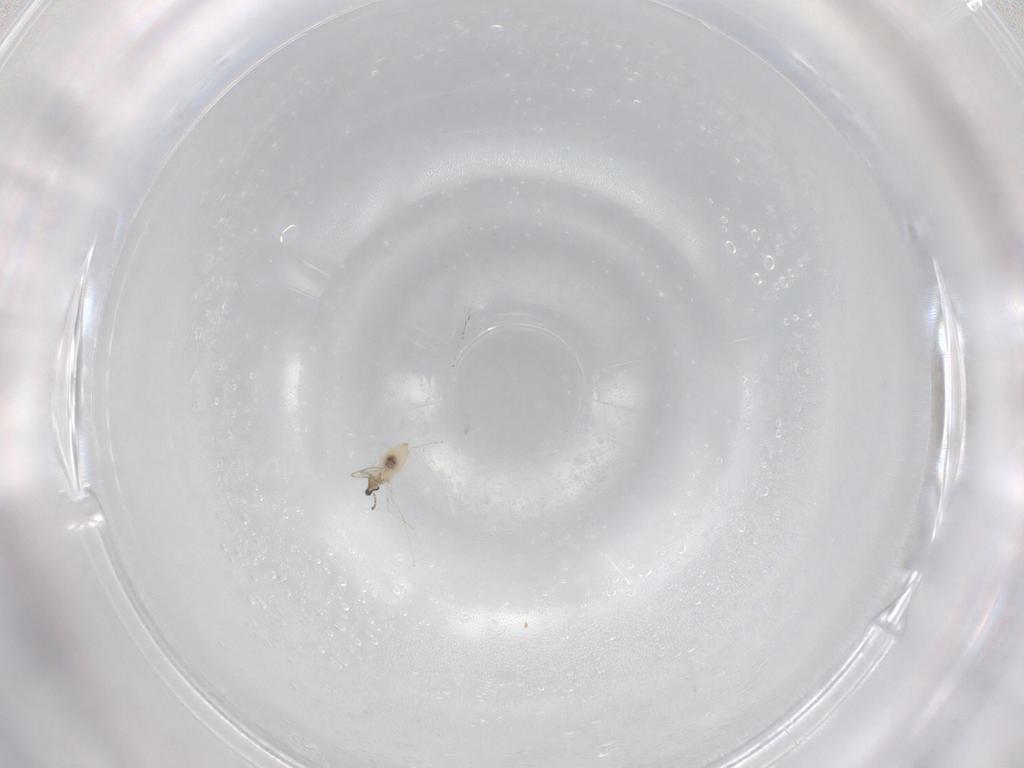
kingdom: Animalia
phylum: Arthropoda
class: Insecta
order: Diptera
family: Cecidomyiidae
